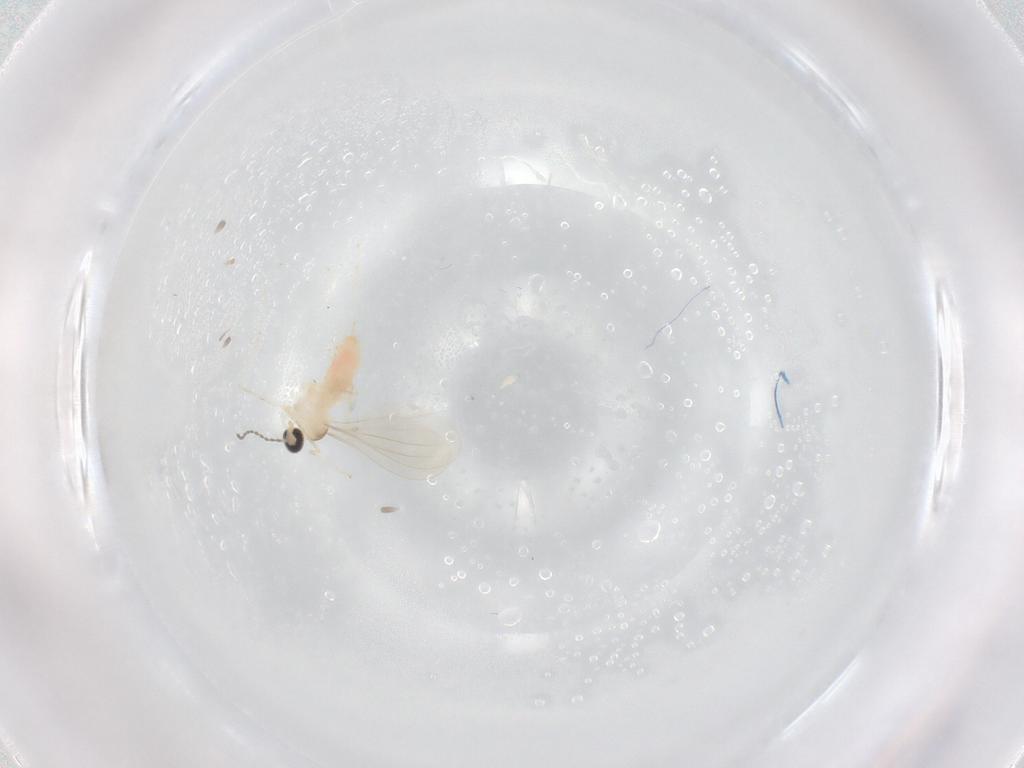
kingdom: Animalia
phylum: Arthropoda
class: Insecta
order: Diptera
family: Cecidomyiidae
